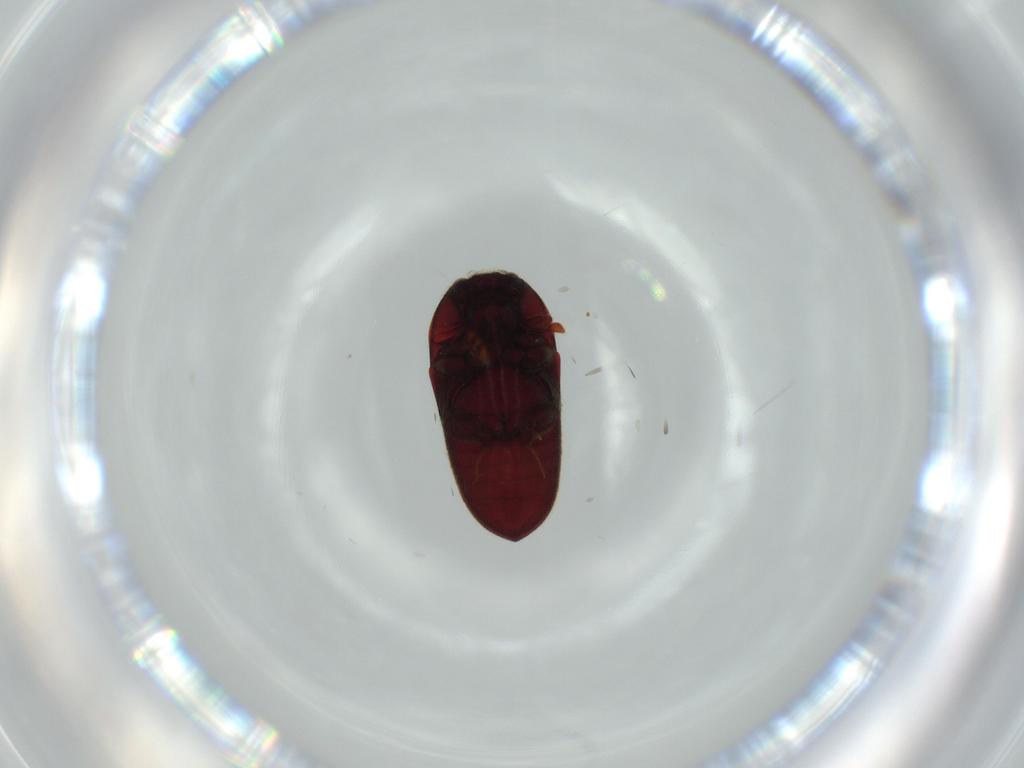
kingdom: Animalia
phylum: Arthropoda
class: Insecta
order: Coleoptera
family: Throscidae
